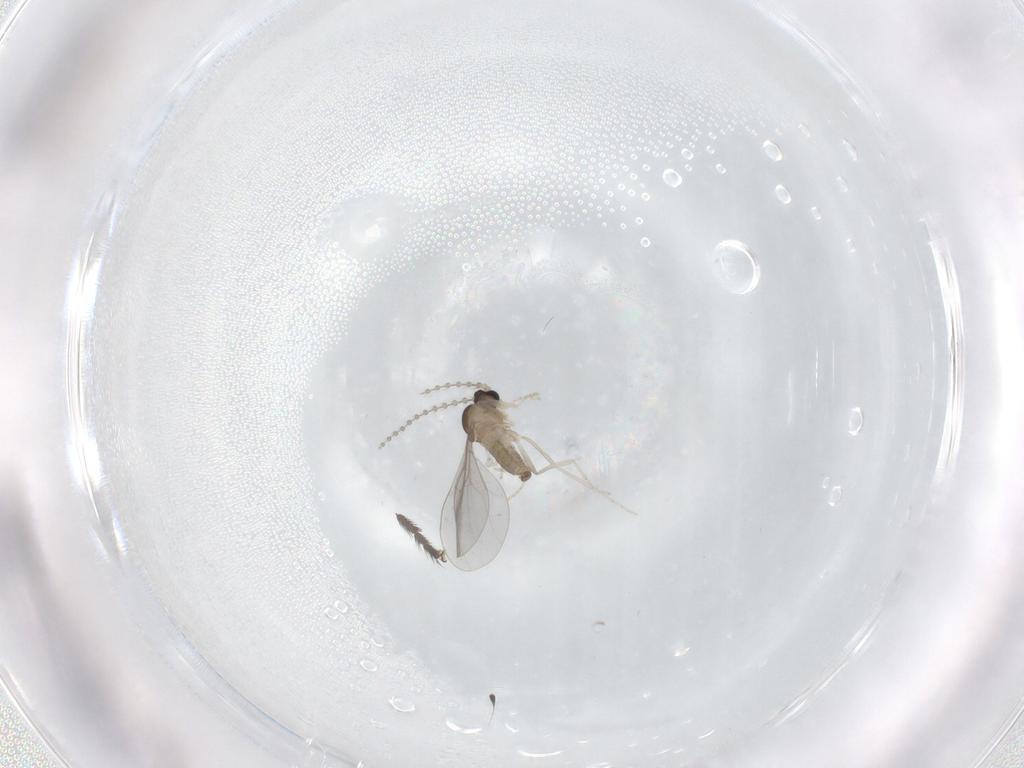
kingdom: Animalia
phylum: Arthropoda
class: Insecta
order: Diptera
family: Cecidomyiidae
